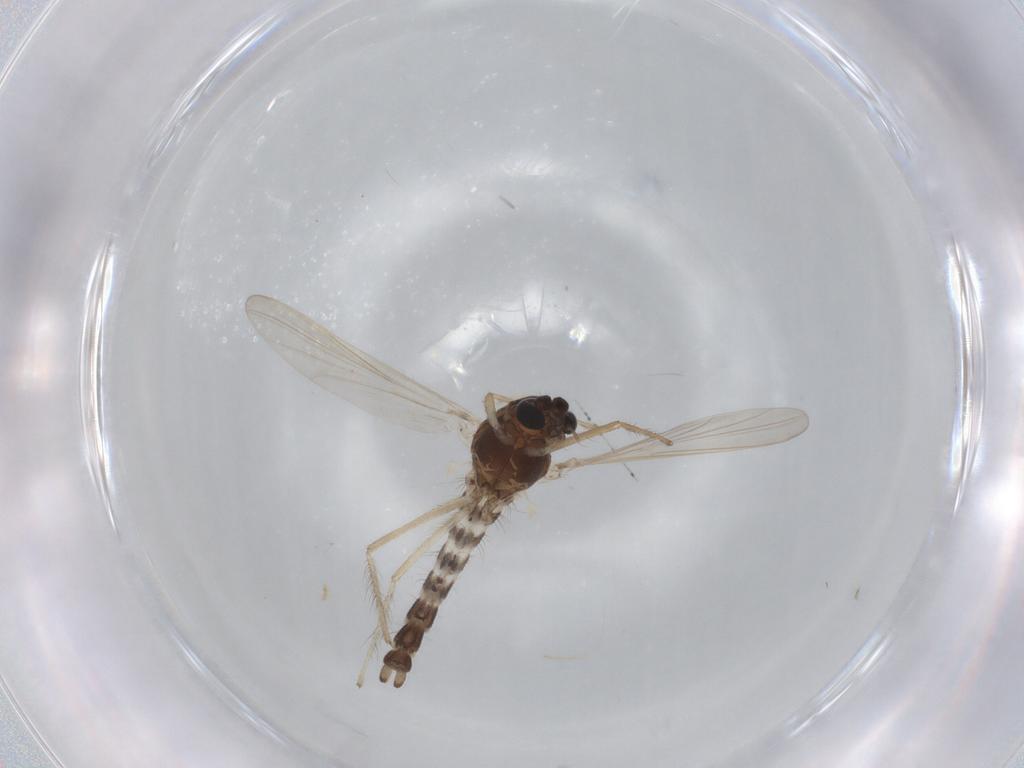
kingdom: Animalia
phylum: Arthropoda
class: Insecta
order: Diptera
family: Chironomidae
